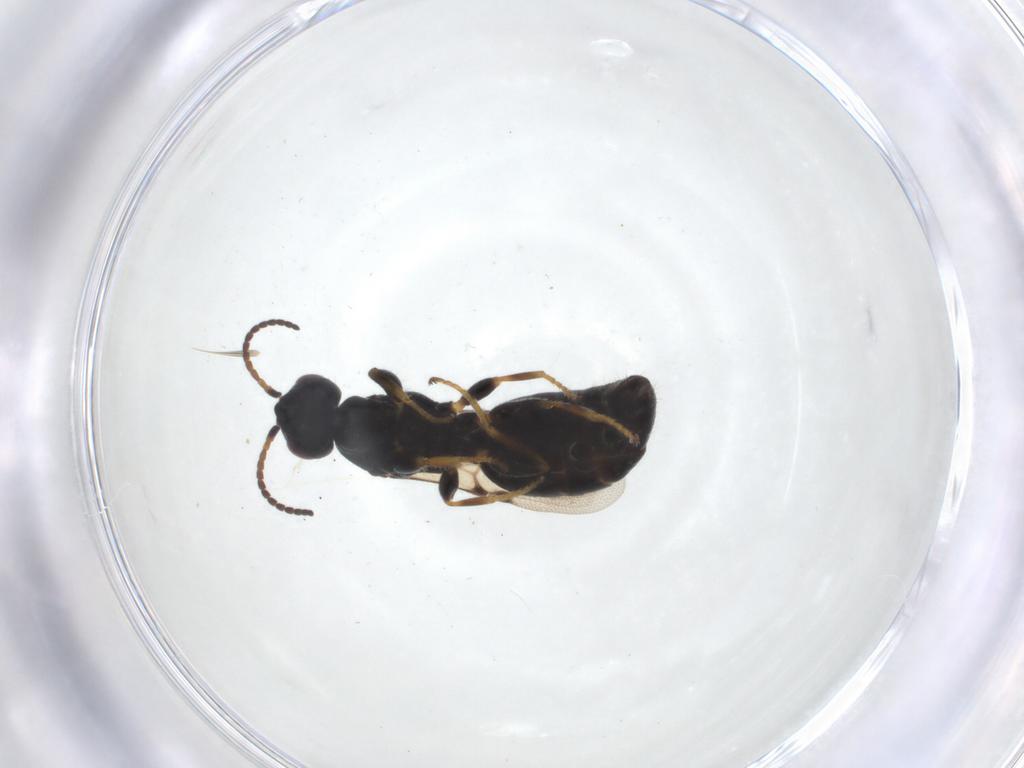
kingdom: Animalia
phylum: Arthropoda
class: Insecta
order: Hymenoptera
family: Bethylidae
